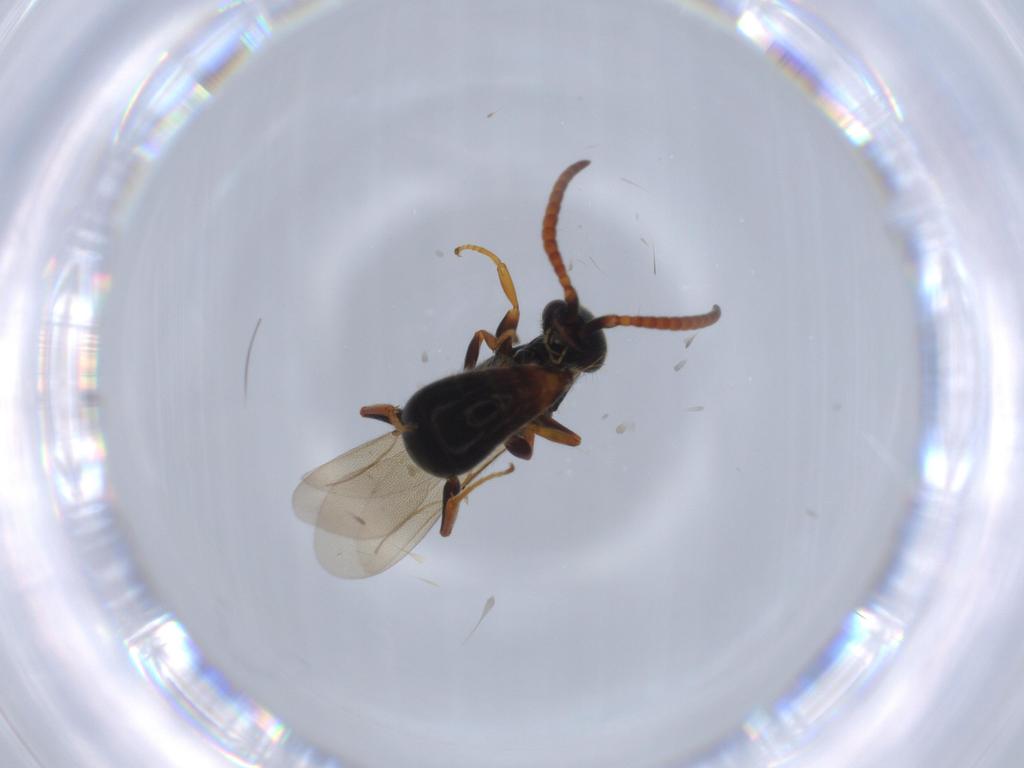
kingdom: Animalia
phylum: Arthropoda
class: Insecta
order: Hymenoptera
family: Bethylidae
